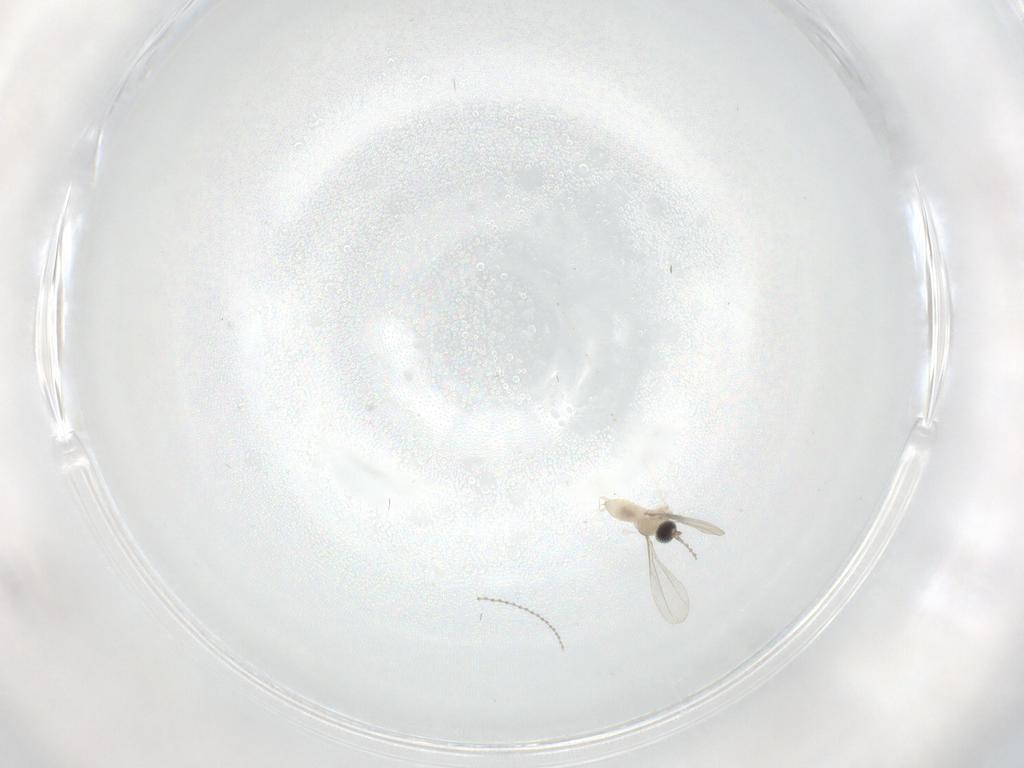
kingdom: Animalia
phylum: Arthropoda
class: Insecta
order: Diptera
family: Cecidomyiidae
